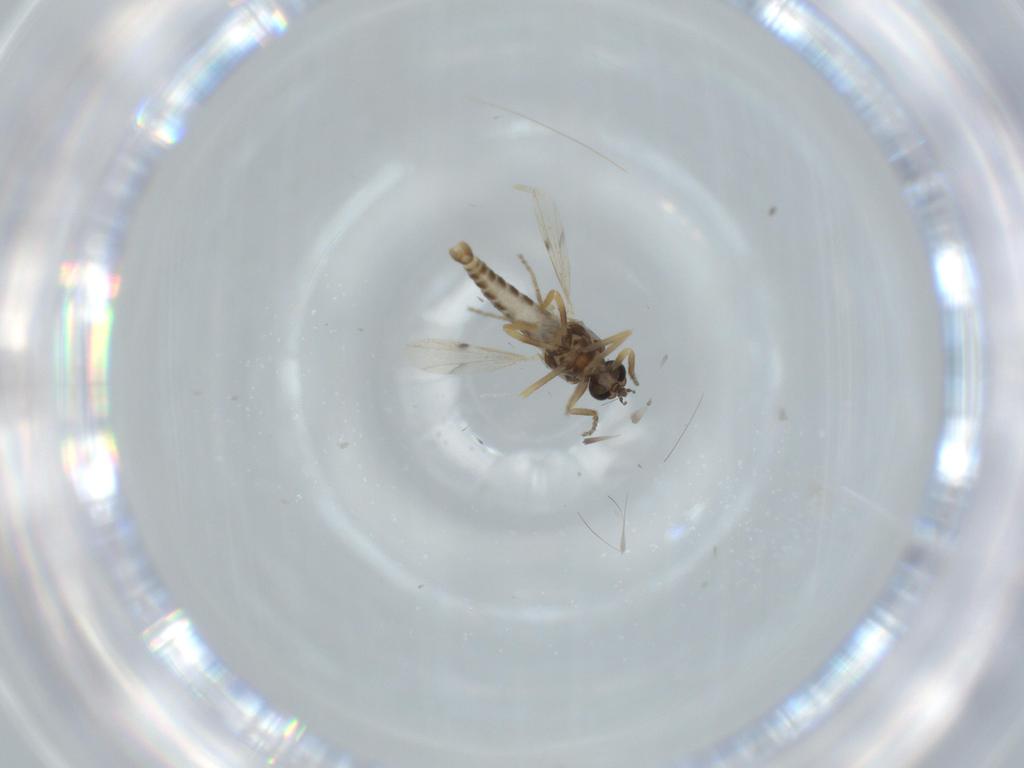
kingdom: Animalia
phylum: Arthropoda
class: Insecta
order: Diptera
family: Ceratopogonidae
